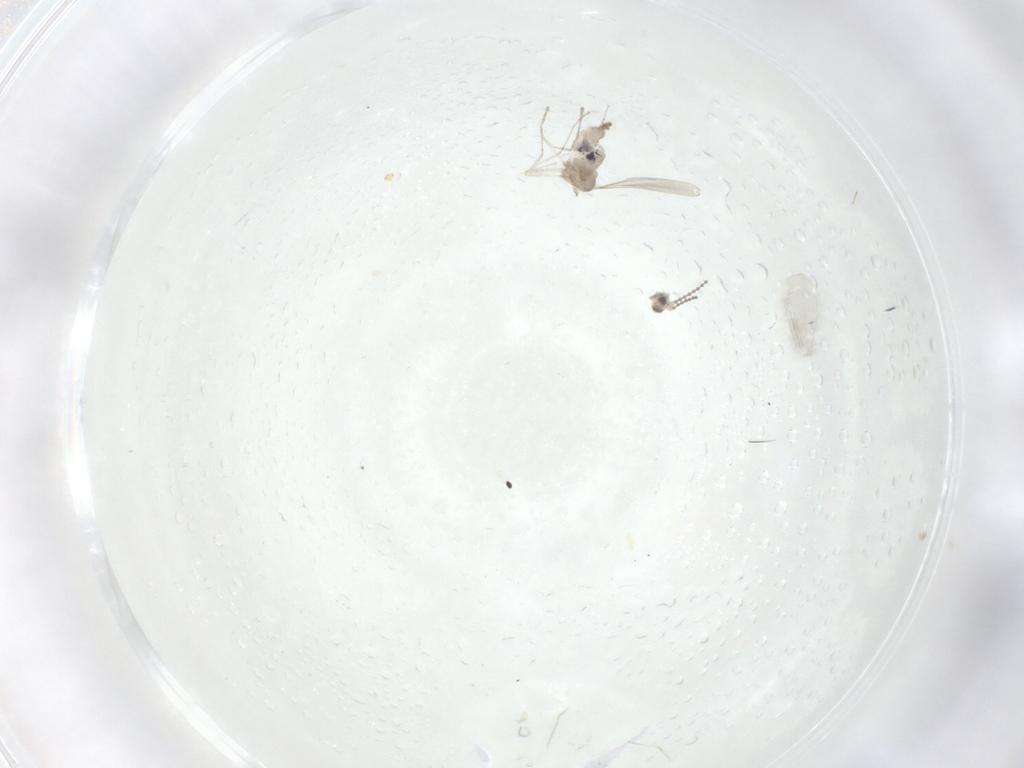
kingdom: Animalia
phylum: Arthropoda
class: Insecta
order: Diptera
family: Cecidomyiidae
